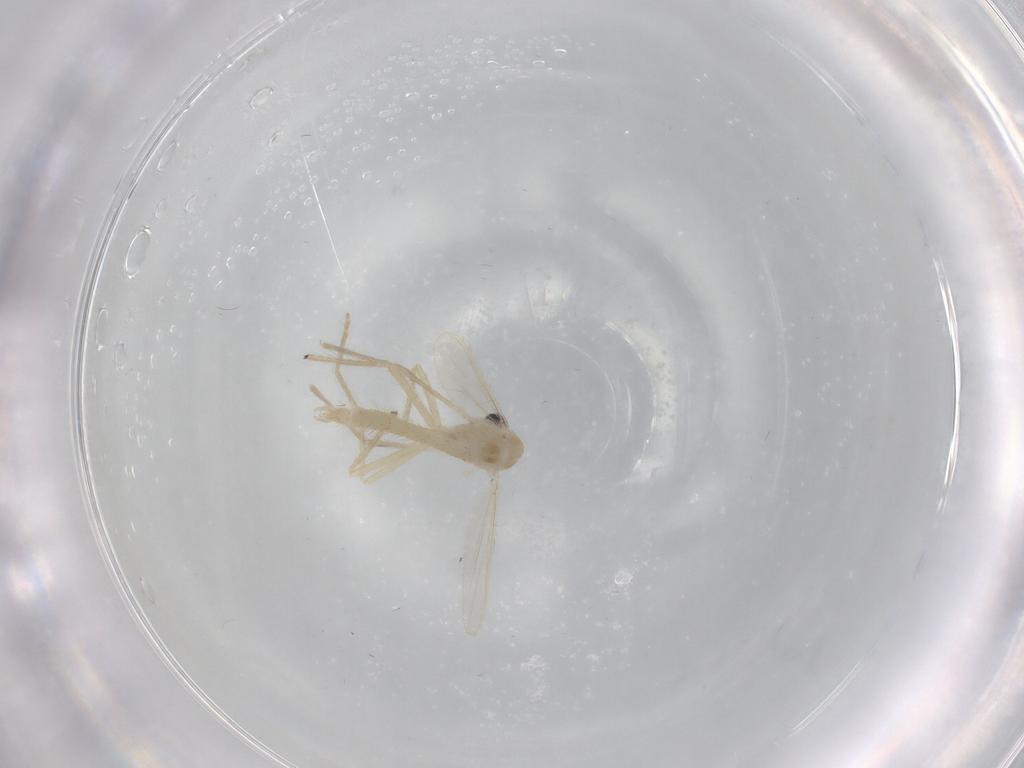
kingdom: Animalia
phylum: Arthropoda
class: Insecta
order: Diptera
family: Chironomidae
